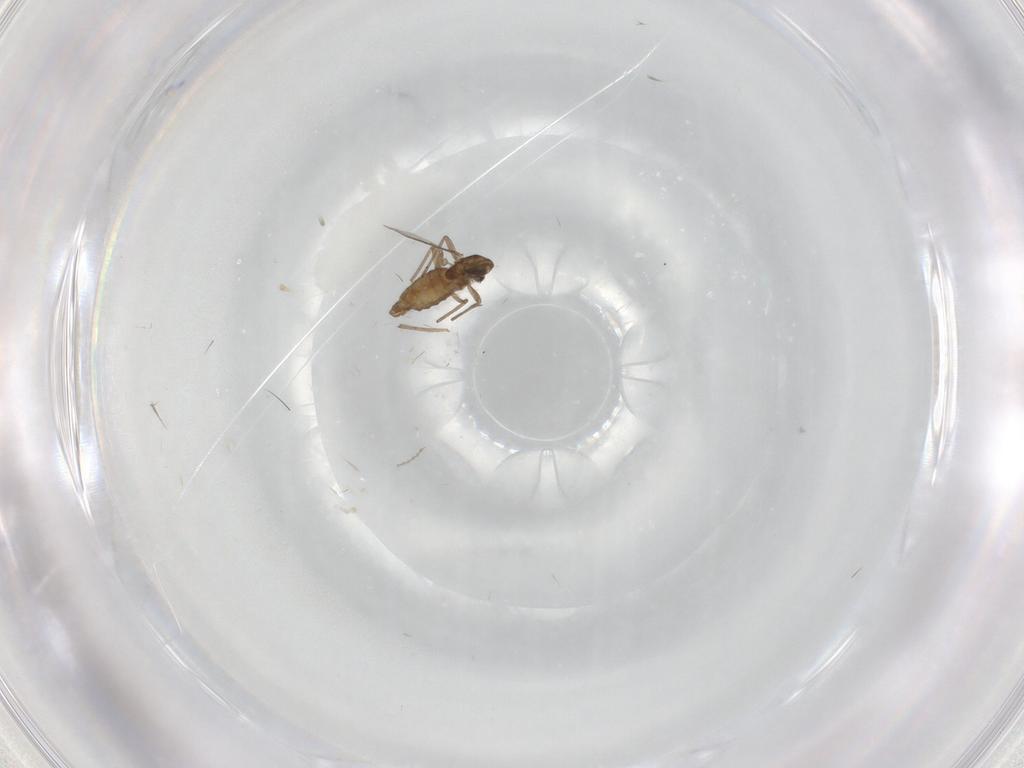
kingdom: Animalia
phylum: Arthropoda
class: Insecta
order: Diptera
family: Chironomidae
